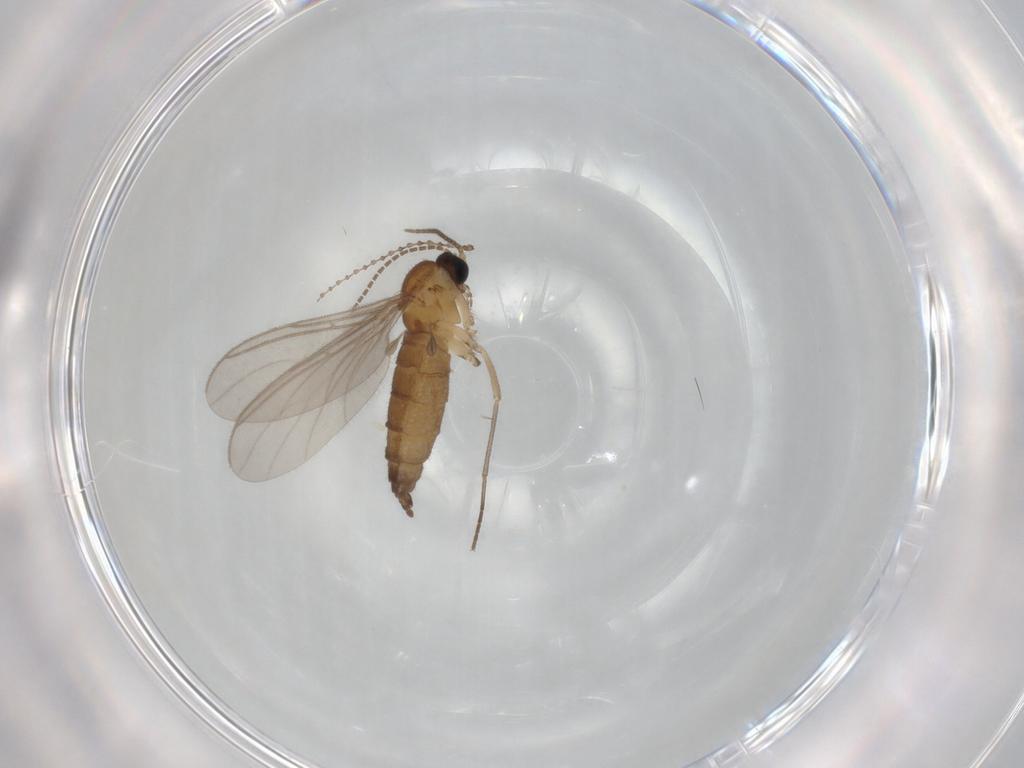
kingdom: Animalia
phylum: Arthropoda
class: Insecta
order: Diptera
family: Sciaridae
